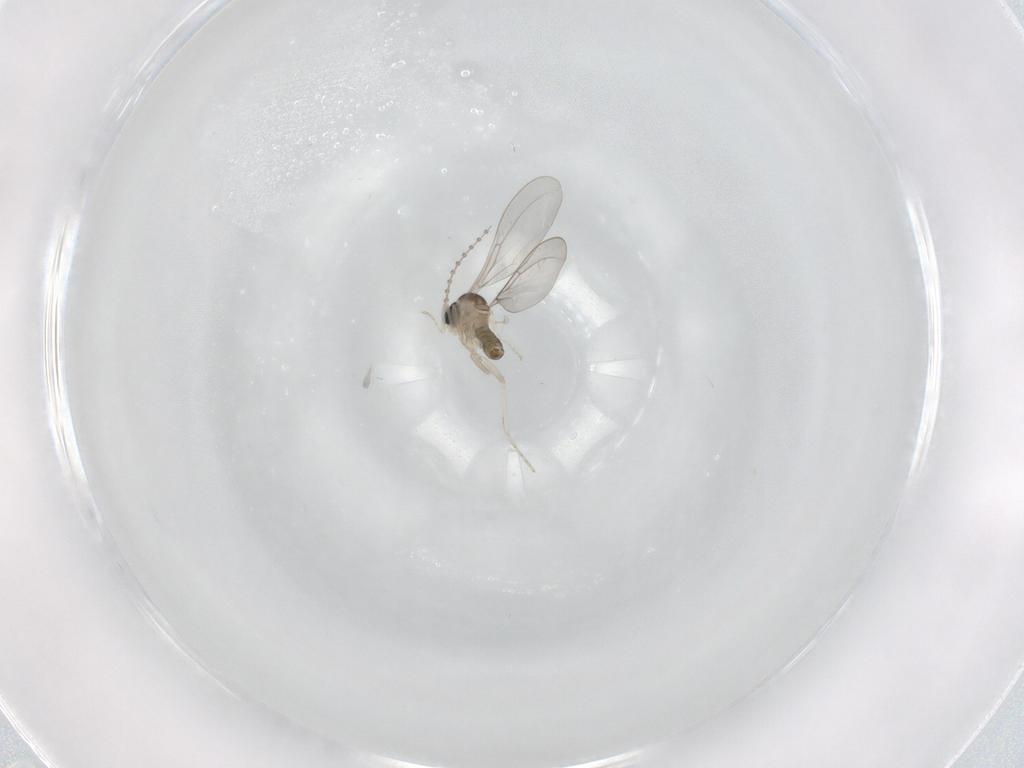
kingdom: Animalia
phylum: Arthropoda
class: Insecta
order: Diptera
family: Cecidomyiidae
